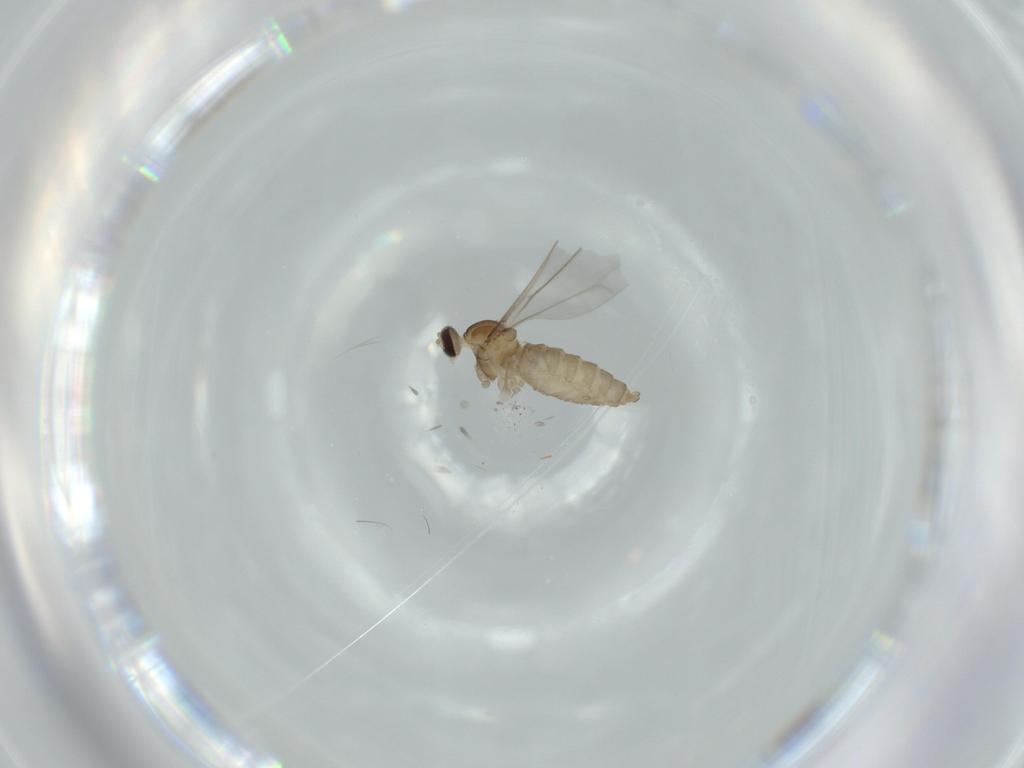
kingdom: Animalia
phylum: Arthropoda
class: Insecta
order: Diptera
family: Cecidomyiidae
